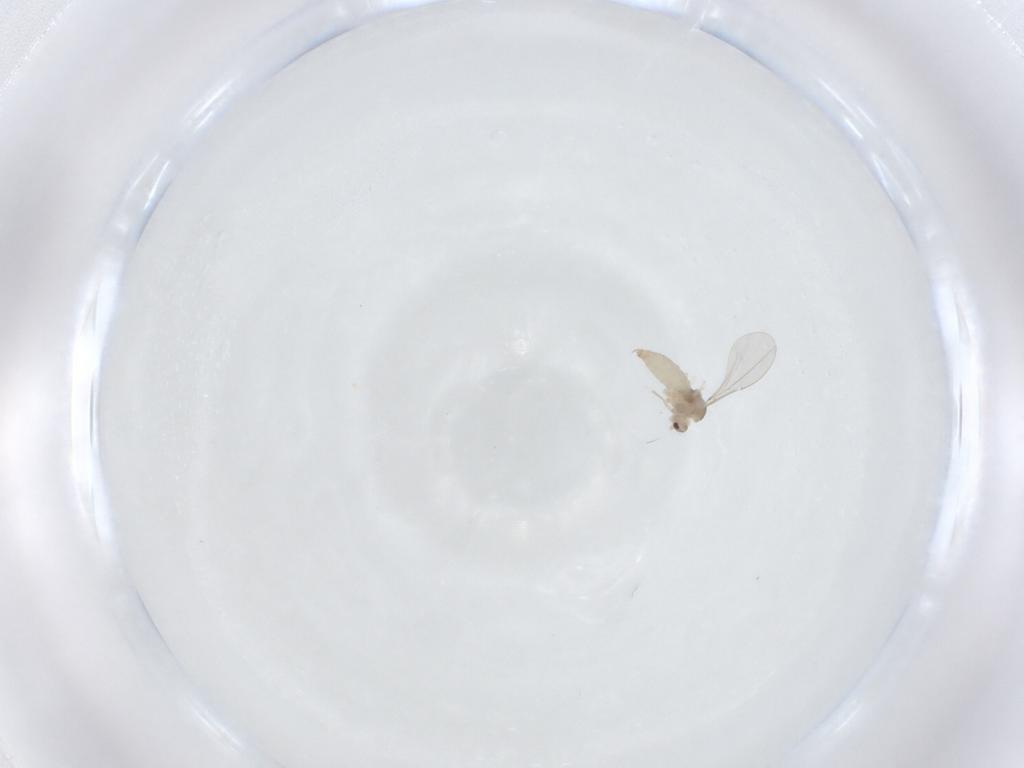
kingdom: Animalia
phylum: Arthropoda
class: Insecta
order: Diptera
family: Cecidomyiidae
